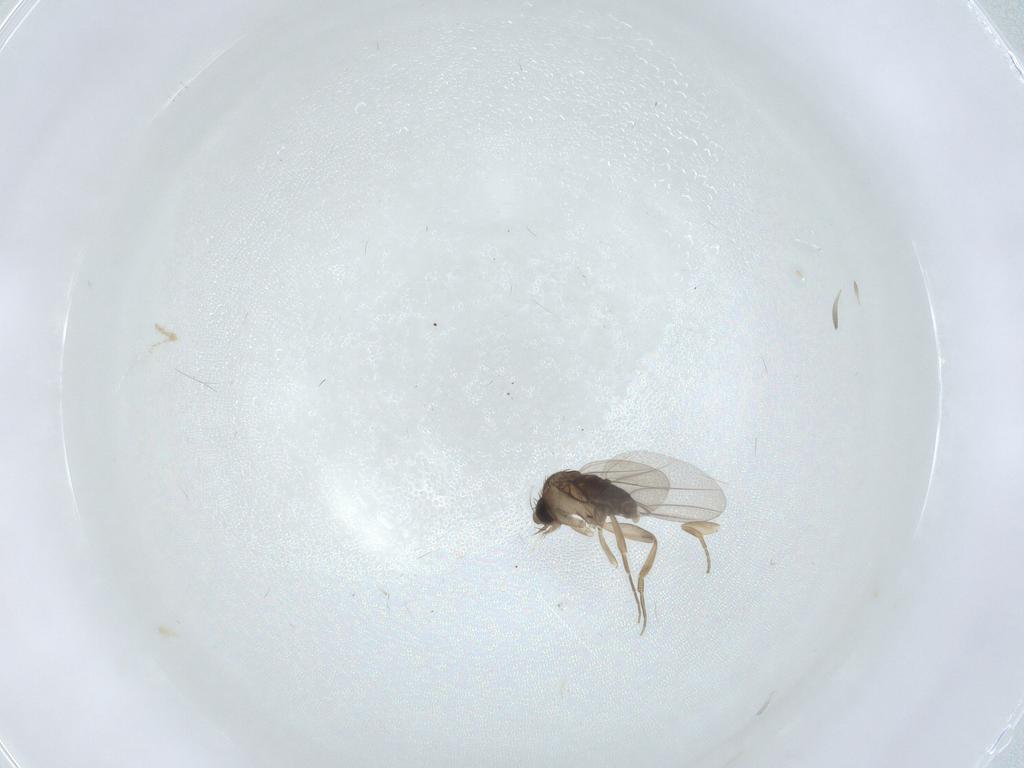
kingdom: Animalia
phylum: Arthropoda
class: Insecta
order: Diptera
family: Phoridae
